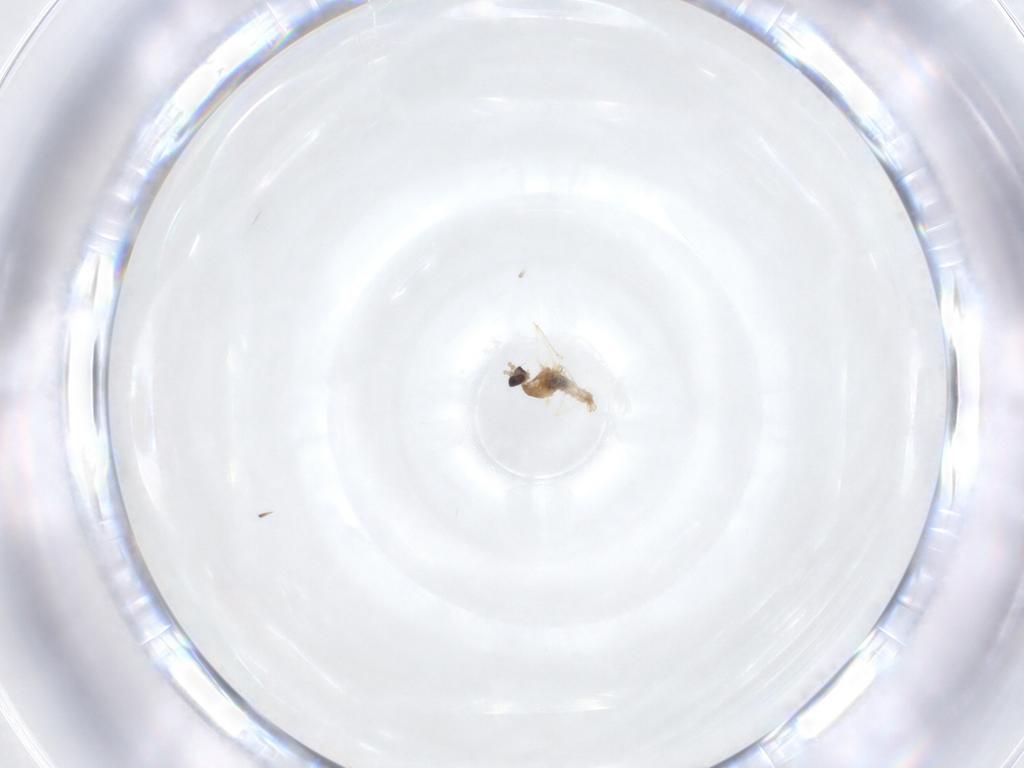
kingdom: Animalia
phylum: Arthropoda
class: Insecta
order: Diptera
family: Cecidomyiidae
